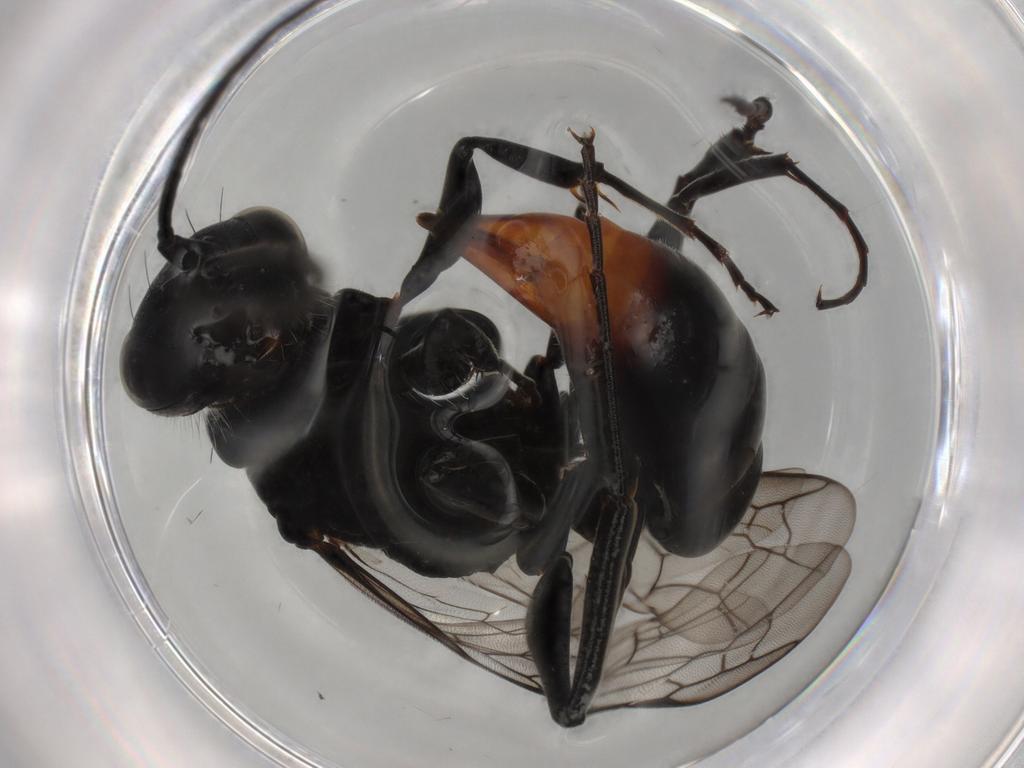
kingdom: Animalia
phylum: Arthropoda
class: Insecta
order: Hymenoptera
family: Ampulicidae
